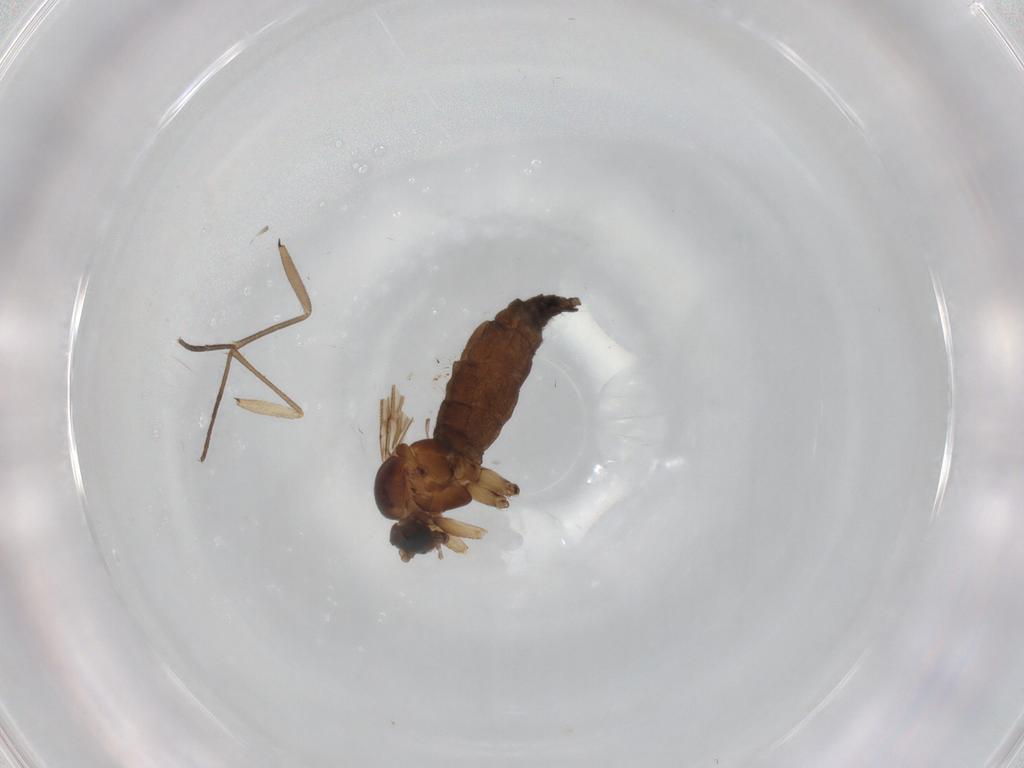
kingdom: Animalia
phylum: Arthropoda
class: Insecta
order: Diptera
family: Sciaridae
